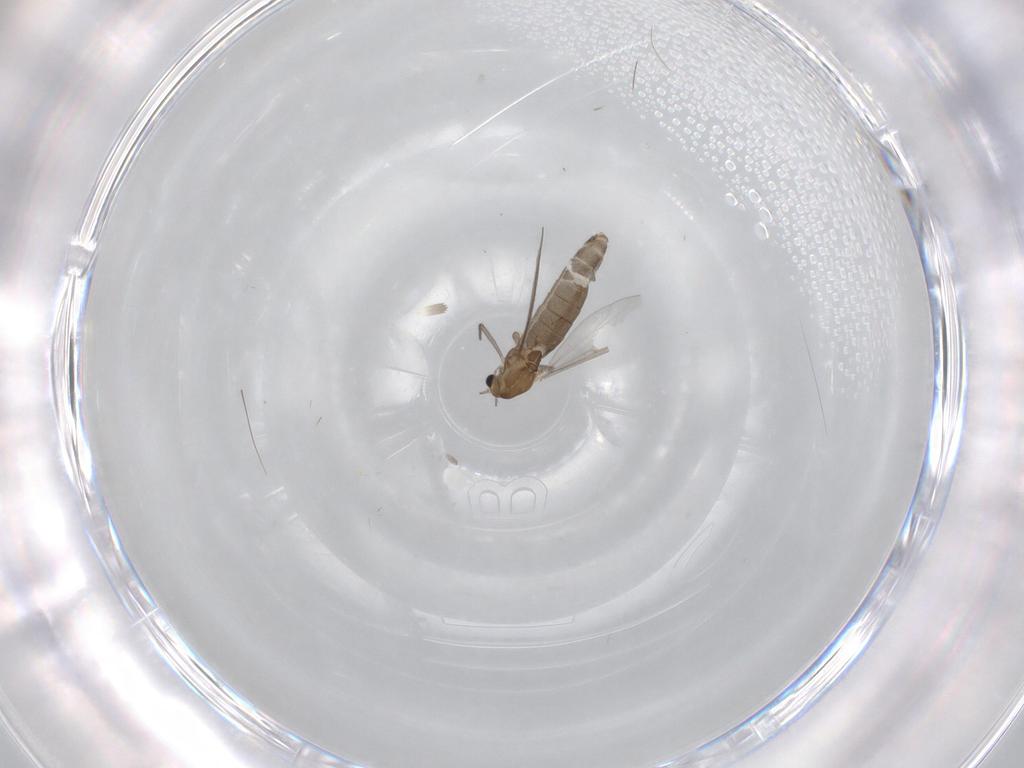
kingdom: Animalia
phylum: Arthropoda
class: Insecta
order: Diptera
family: Chironomidae
